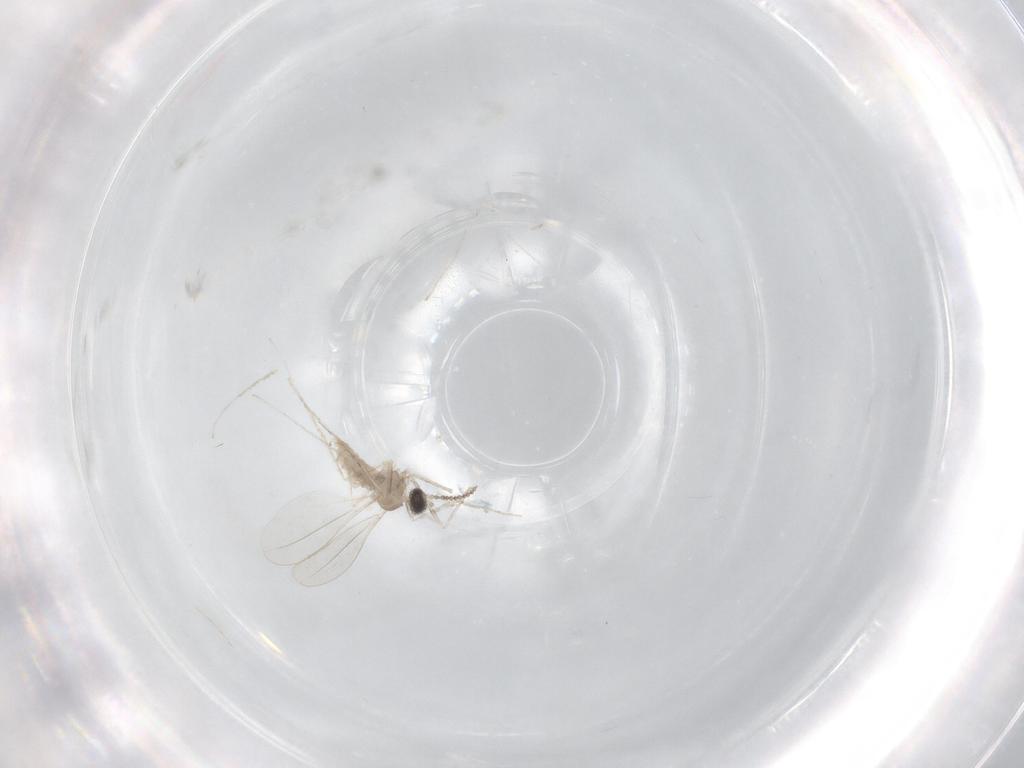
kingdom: Animalia
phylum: Arthropoda
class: Insecta
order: Diptera
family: Cecidomyiidae
